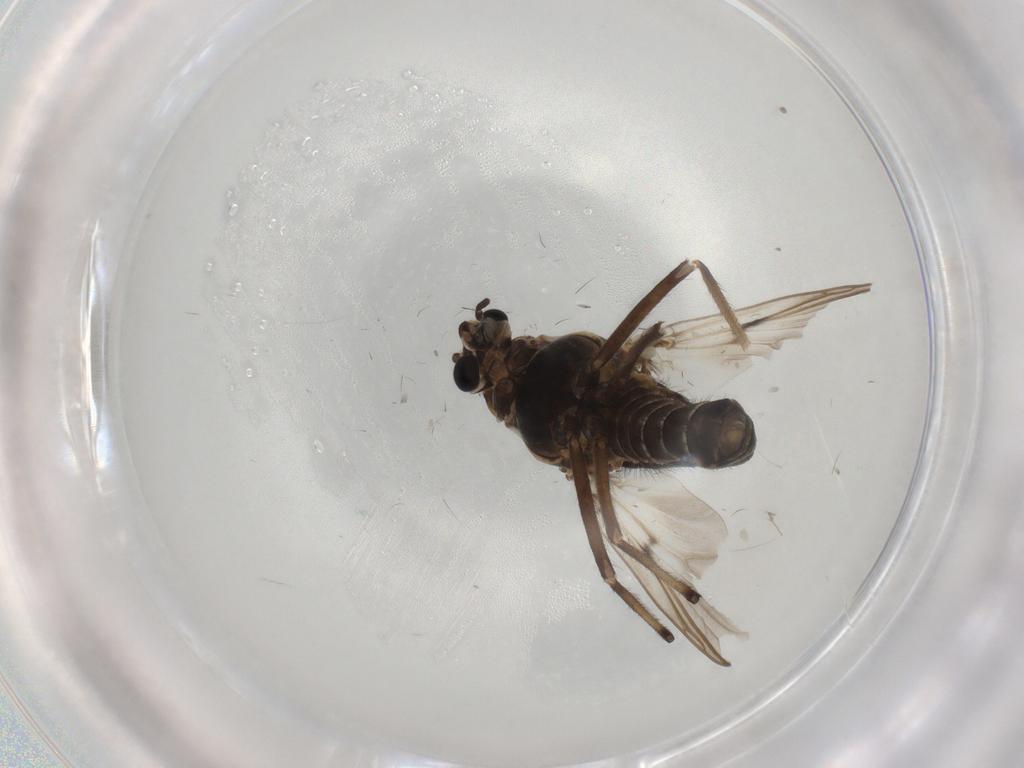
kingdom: Animalia
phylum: Arthropoda
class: Insecta
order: Diptera
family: Chironomidae
